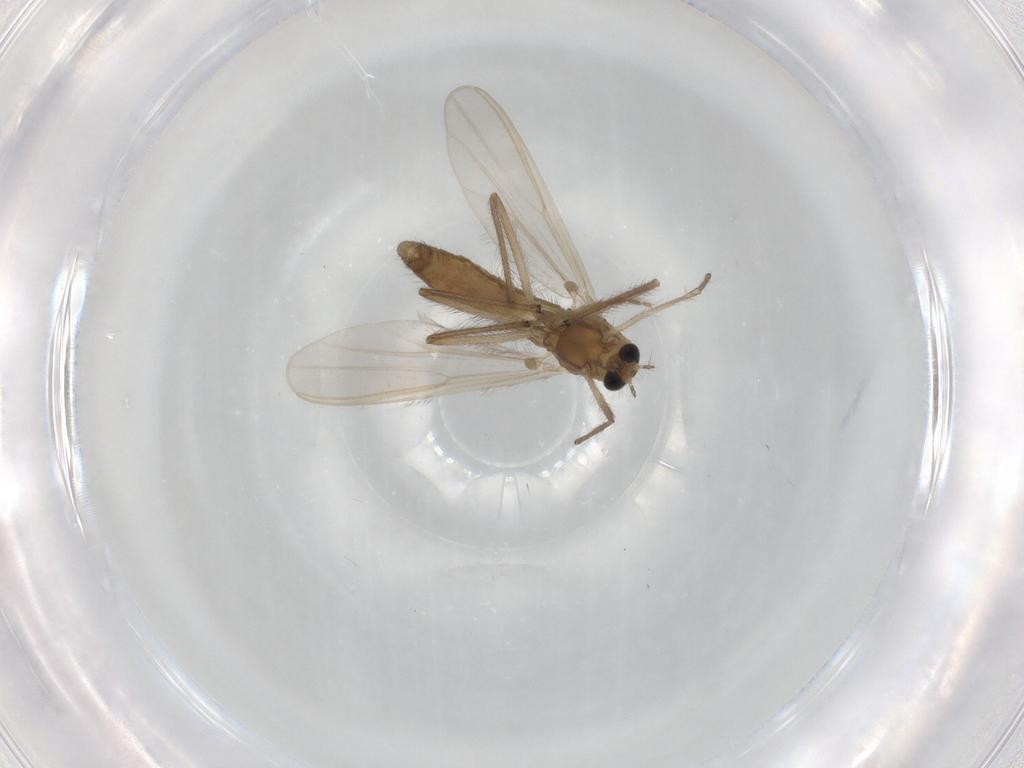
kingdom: Animalia
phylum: Arthropoda
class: Insecta
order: Diptera
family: Chironomidae
